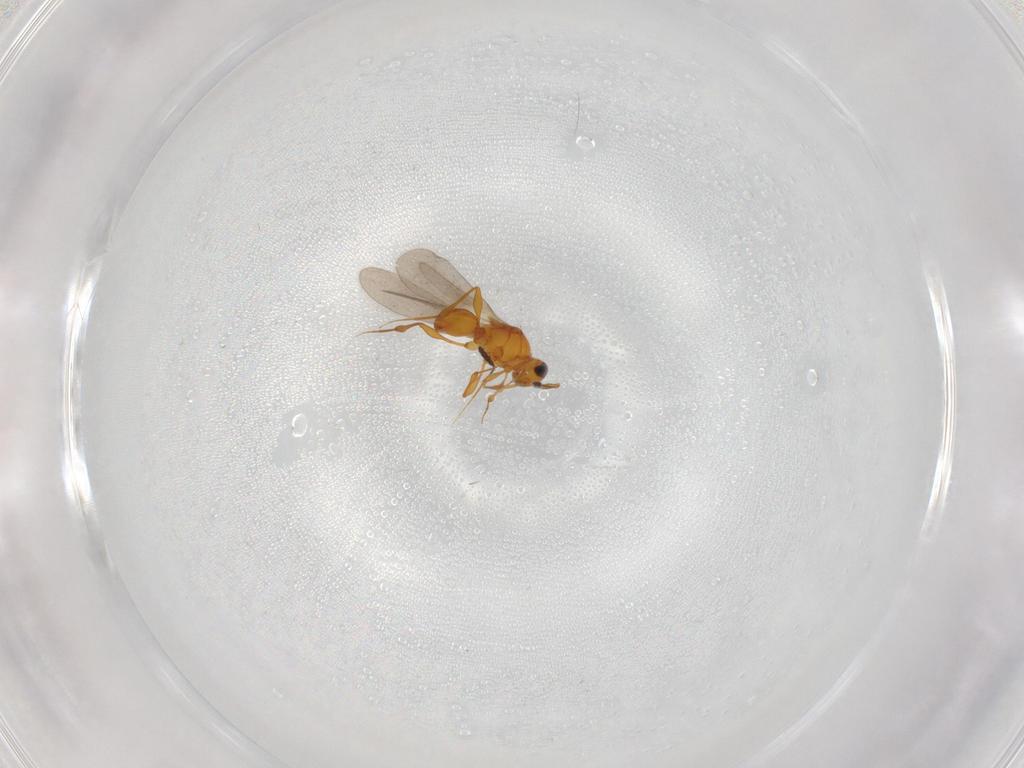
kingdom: Animalia
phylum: Arthropoda
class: Insecta
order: Hymenoptera
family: Platygastridae
